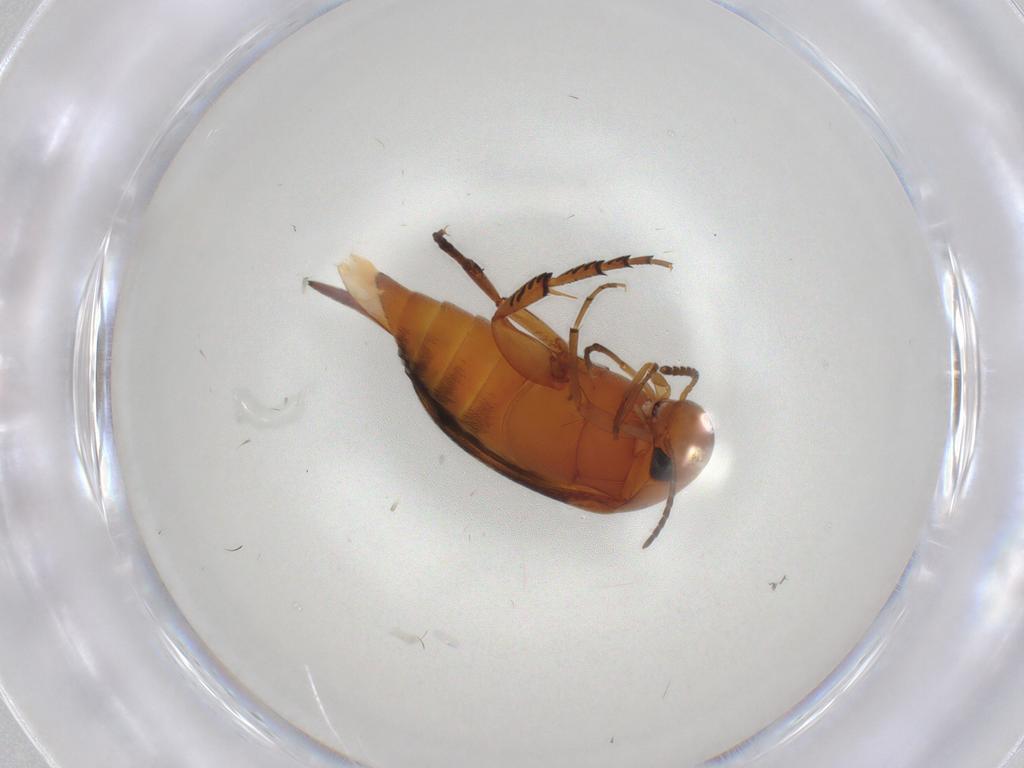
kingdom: Animalia
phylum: Arthropoda
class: Insecta
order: Coleoptera
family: Mordellidae
